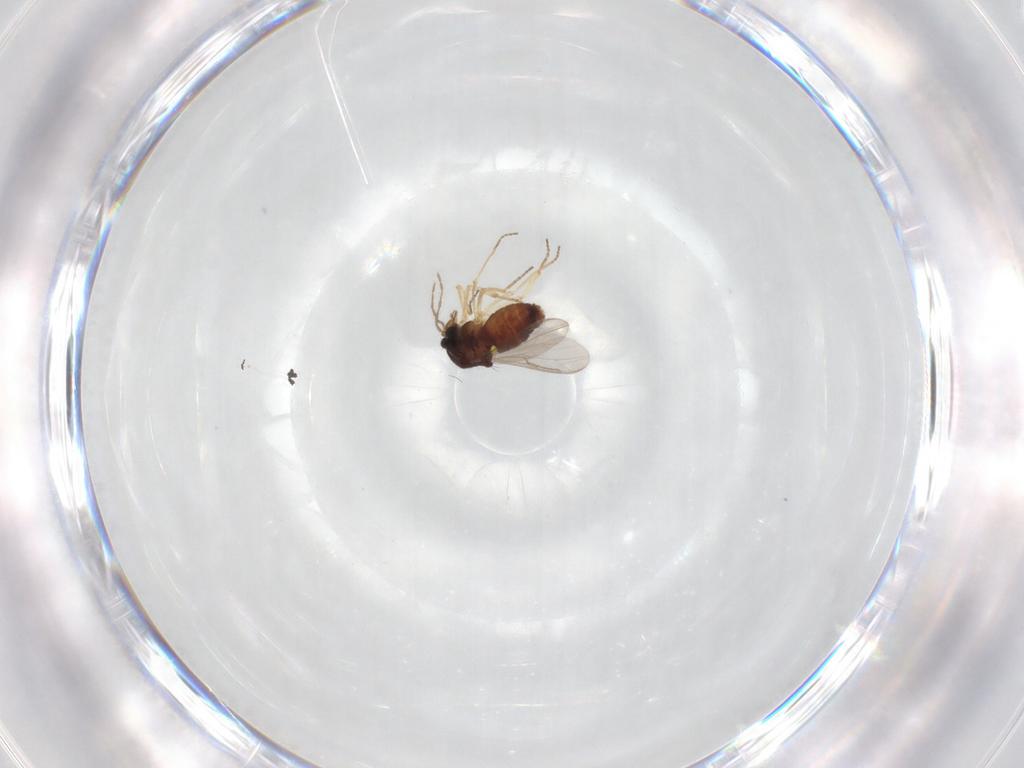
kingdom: Animalia
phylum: Arthropoda
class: Insecta
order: Diptera
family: Ceratopogonidae
